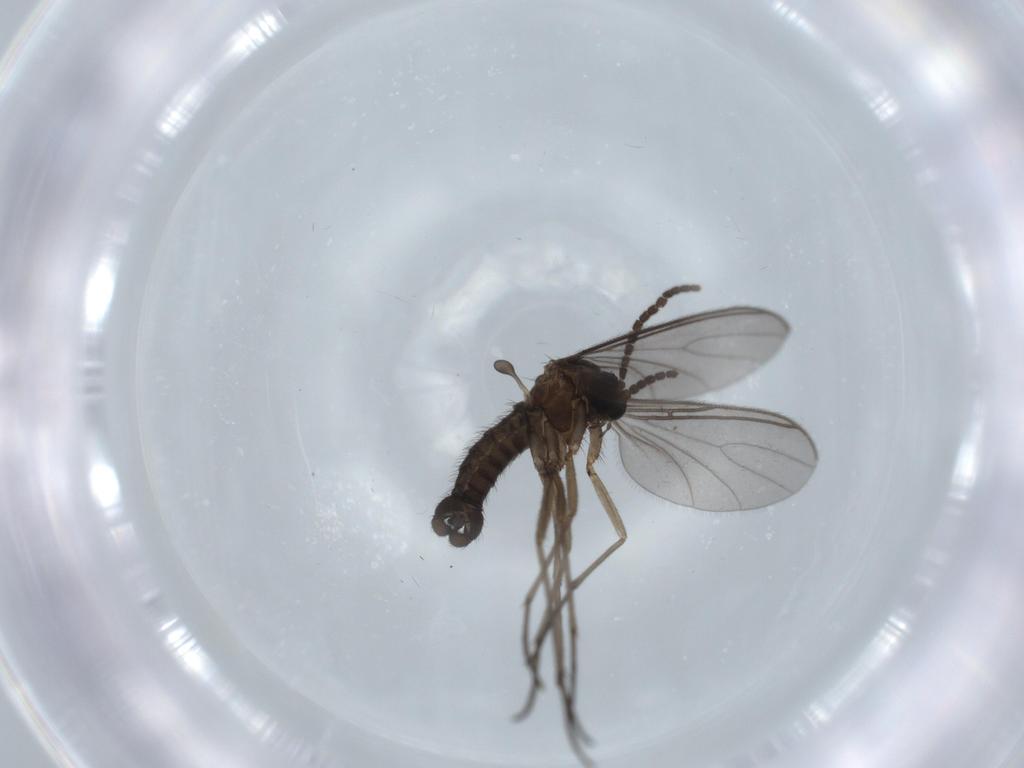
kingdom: Animalia
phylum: Arthropoda
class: Insecta
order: Diptera
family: Sciaridae
